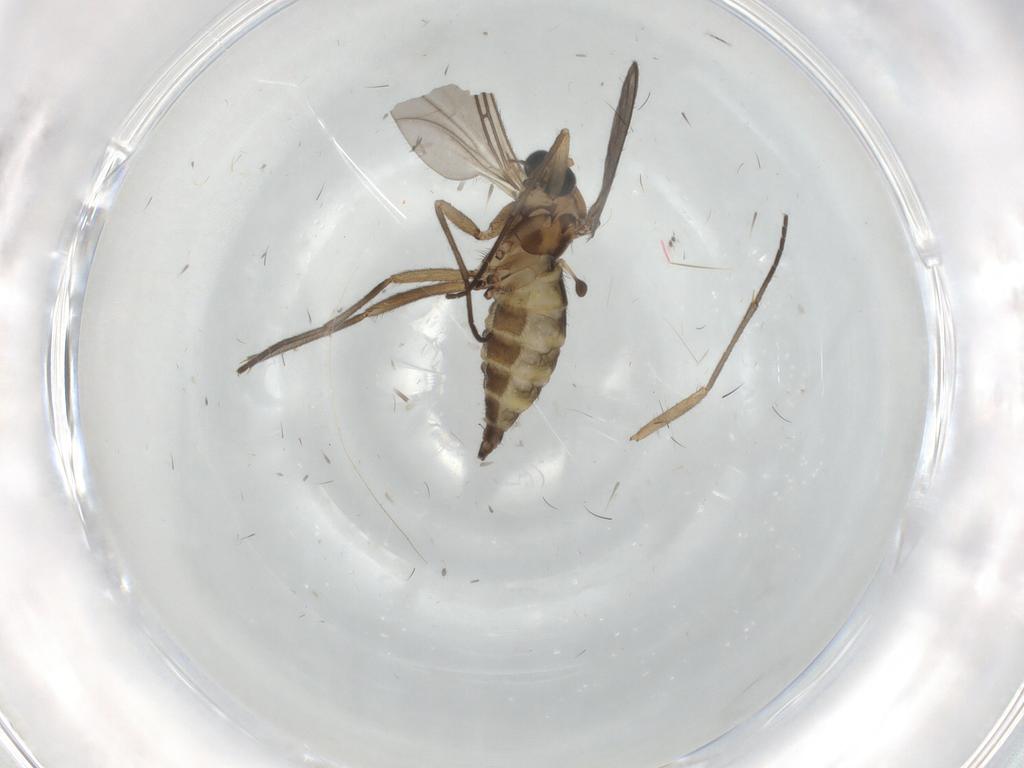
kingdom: Animalia
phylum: Arthropoda
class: Insecta
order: Diptera
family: Sciaridae
